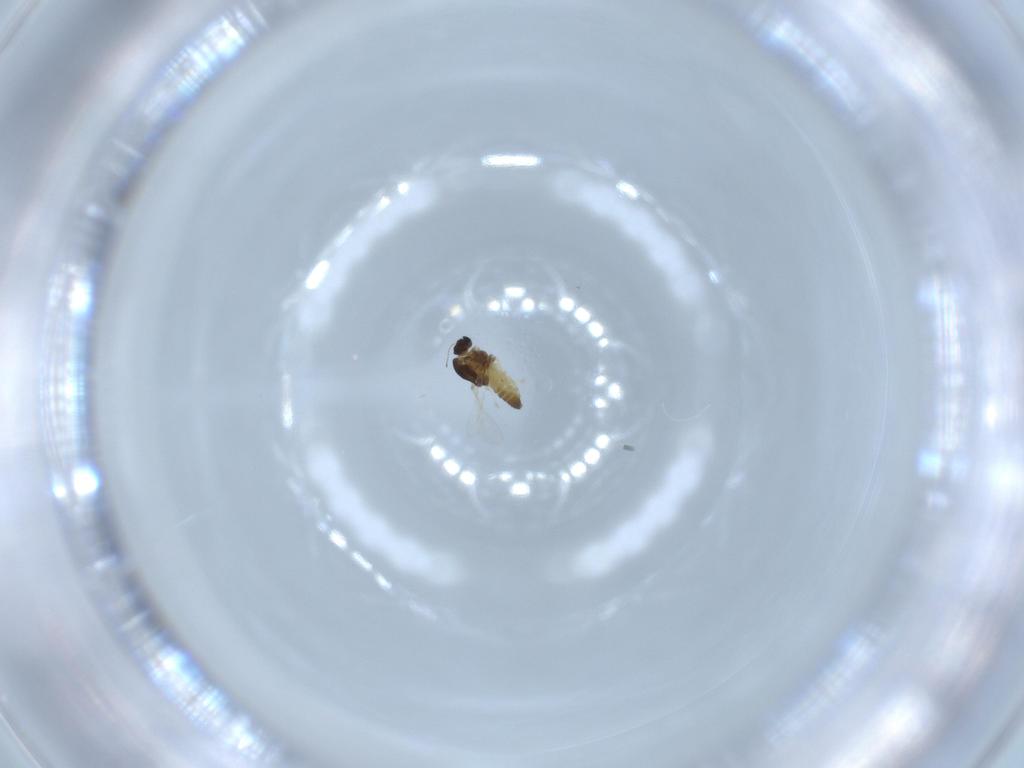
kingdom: Animalia
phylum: Arthropoda
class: Insecta
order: Diptera
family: Chironomidae
